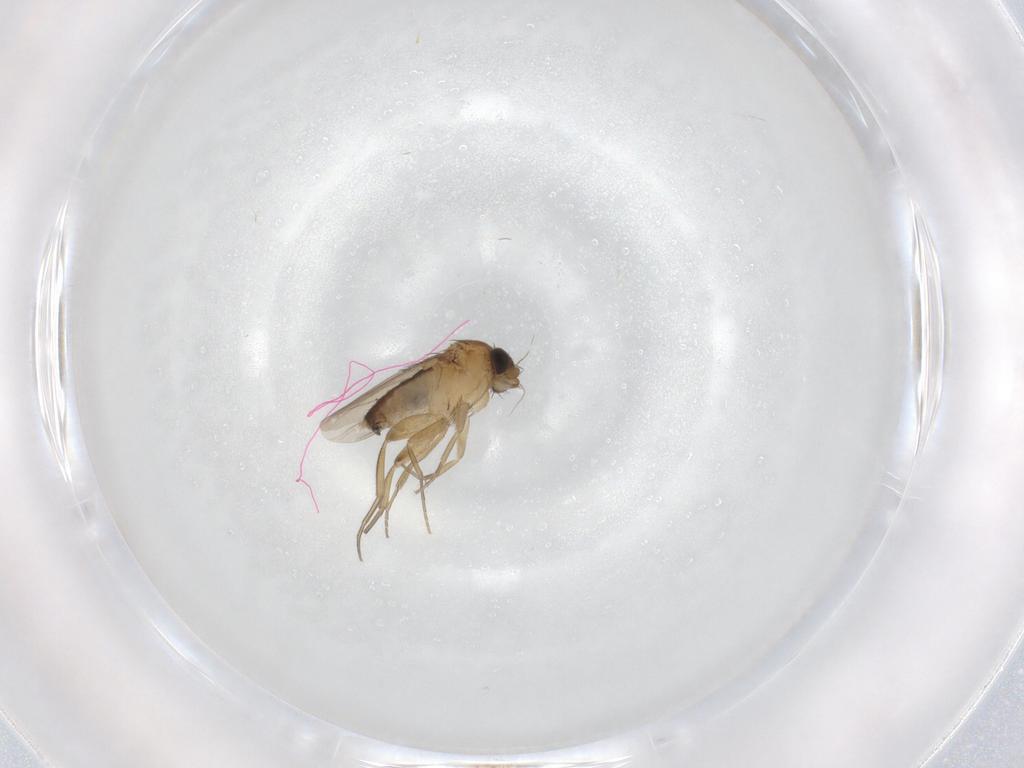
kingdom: Animalia
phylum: Arthropoda
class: Insecta
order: Diptera
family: Phoridae
